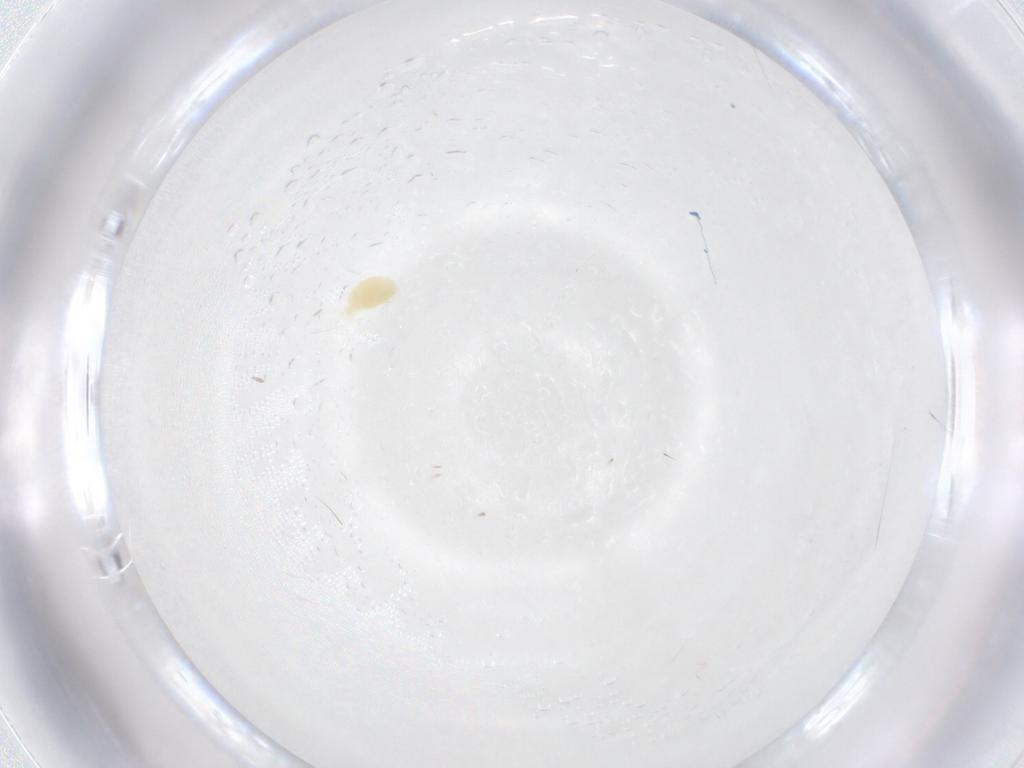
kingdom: Animalia
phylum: Arthropoda
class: Arachnida
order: Trombidiformes
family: Tetranychidae
